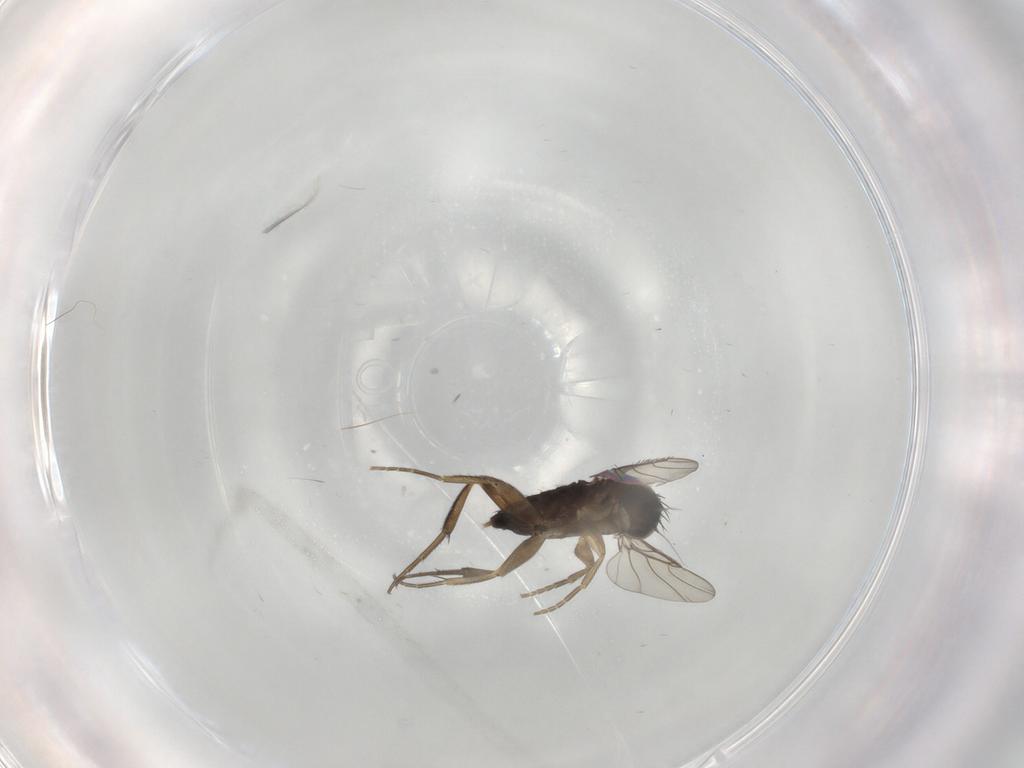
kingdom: Animalia
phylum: Arthropoda
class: Insecta
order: Diptera
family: Phoridae
